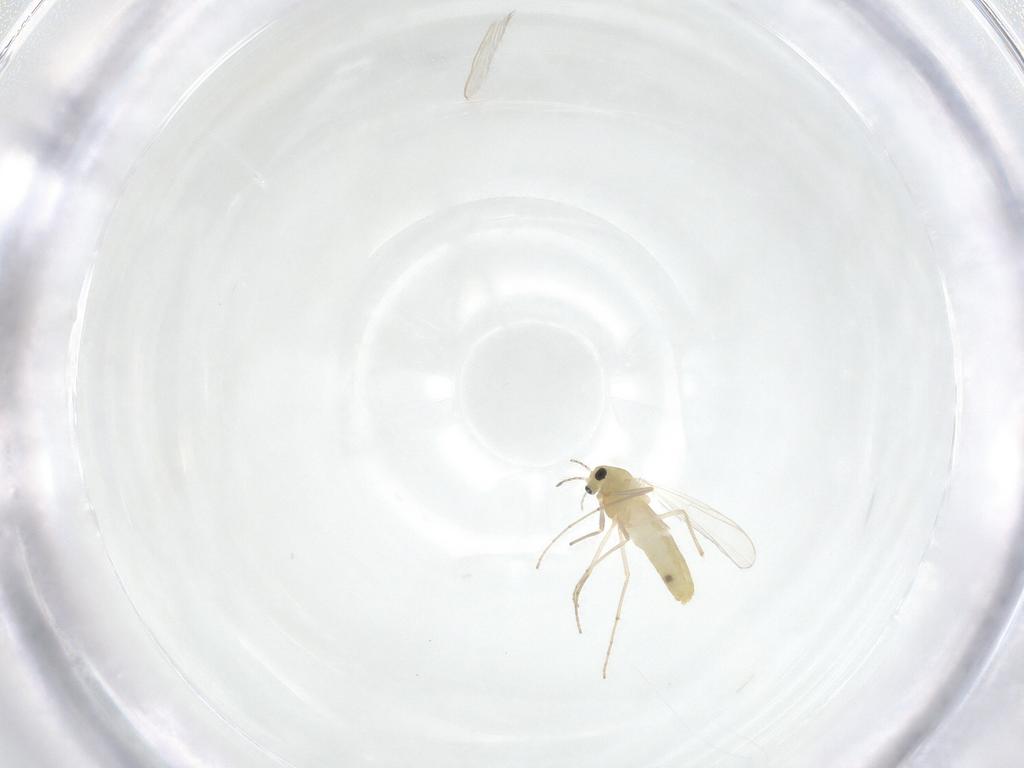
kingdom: Animalia
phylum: Arthropoda
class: Insecta
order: Diptera
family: Chironomidae
